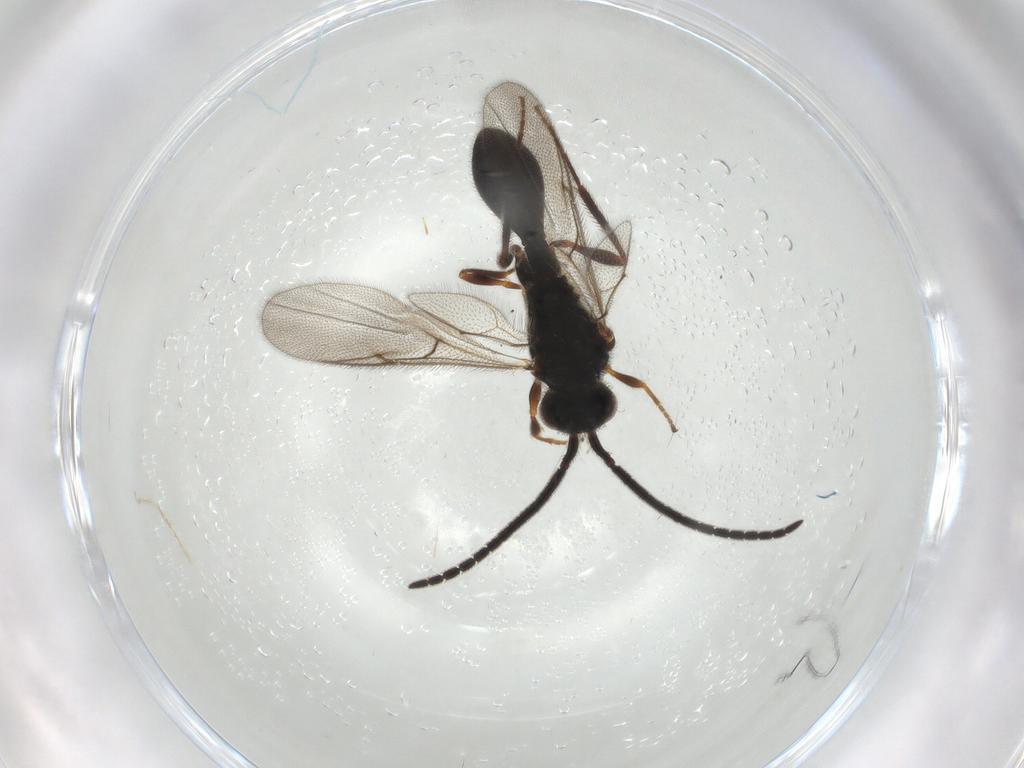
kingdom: Animalia
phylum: Arthropoda
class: Insecta
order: Hymenoptera
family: Diapriidae
